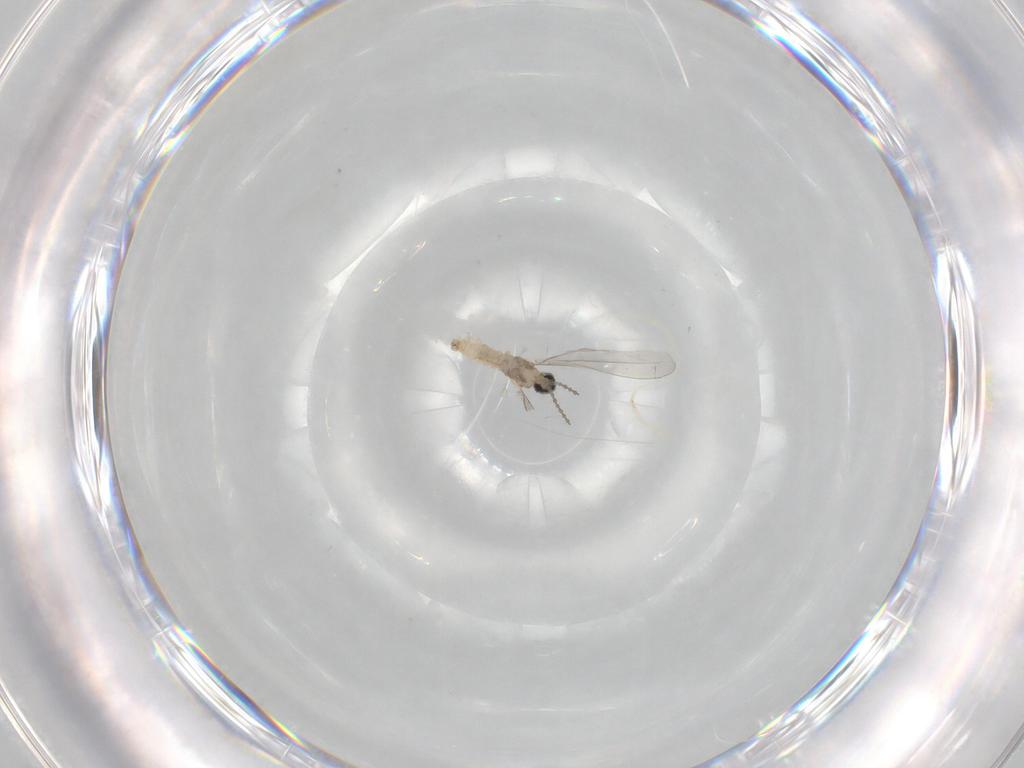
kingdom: Animalia
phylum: Arthropoda
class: Insecta
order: Diptera
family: Cecidomyiidae
